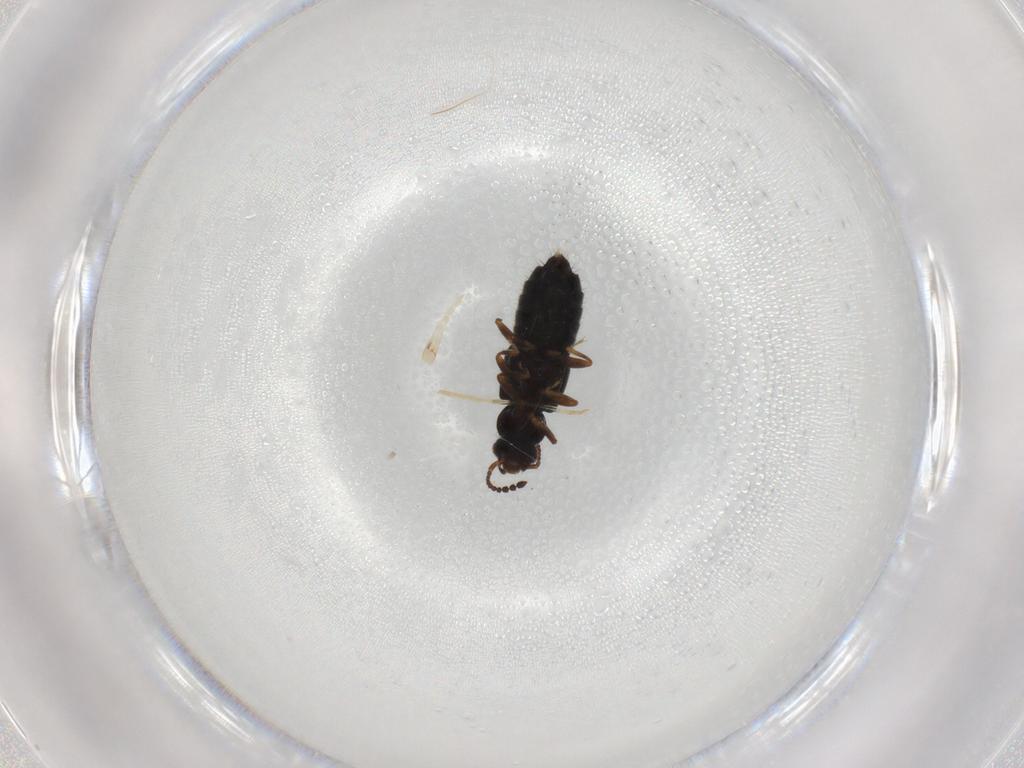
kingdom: Animalia
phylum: Arthropoda
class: Insecta
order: Coleoptera
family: Staphylinidae
